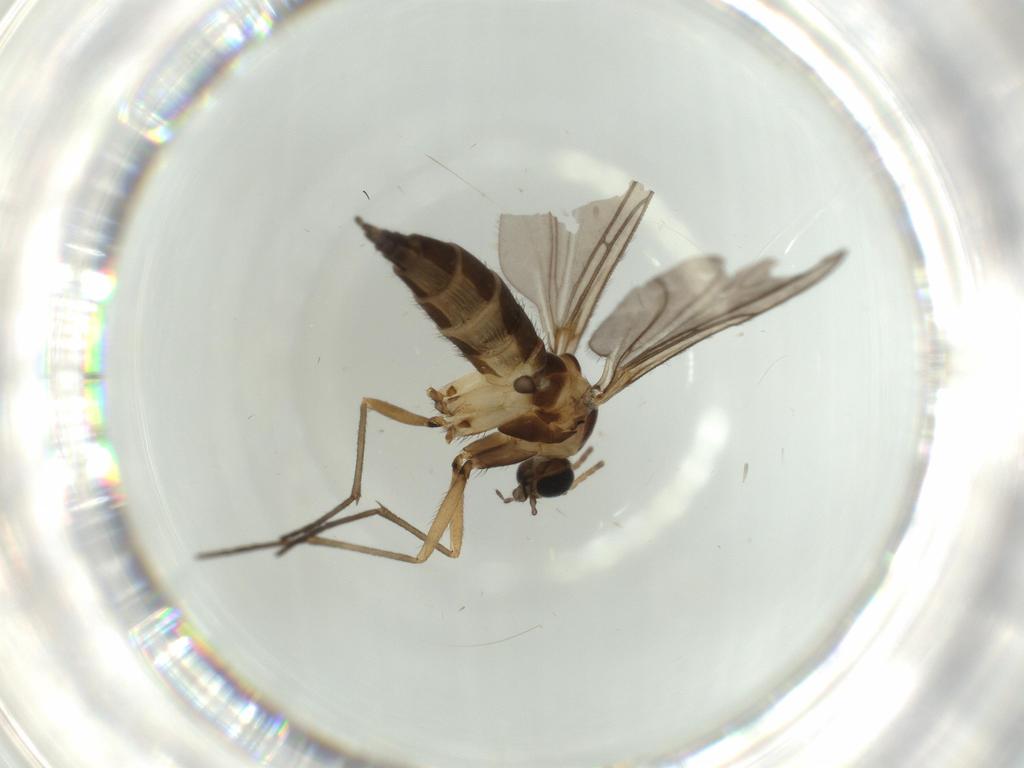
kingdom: Animalia
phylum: Arthropoda
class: Insecta
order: Diptera
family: Sciaridae
